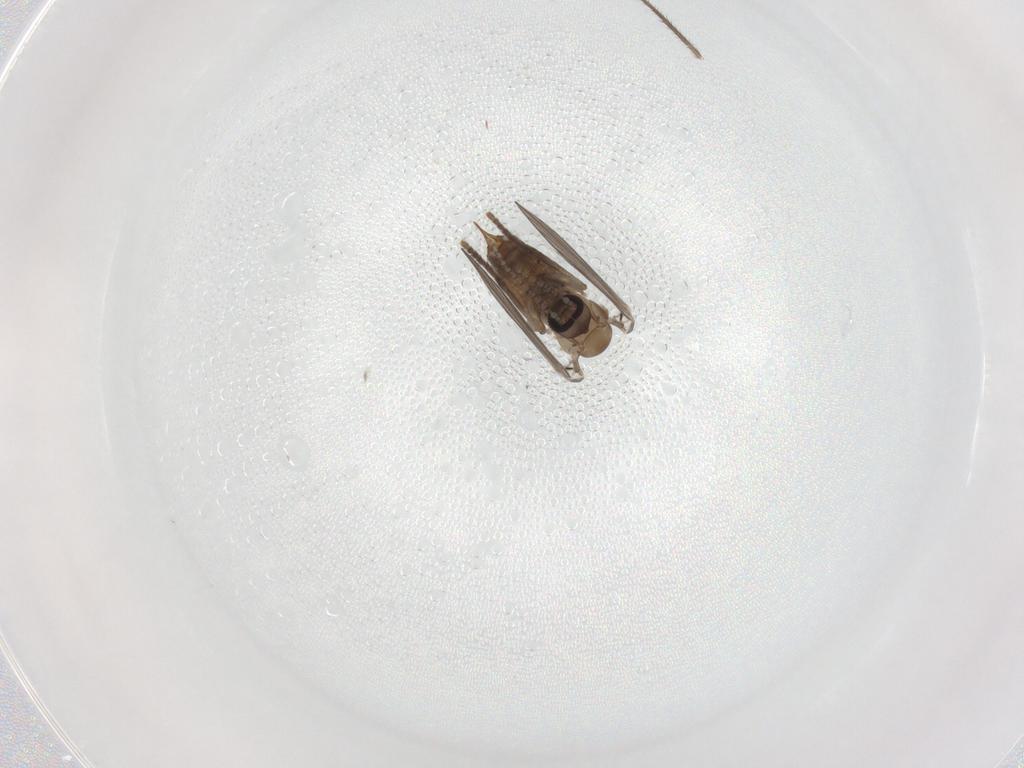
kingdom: Animalia
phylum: Arthropoda
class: Insecta
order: Diptera
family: Mycetophilidae
